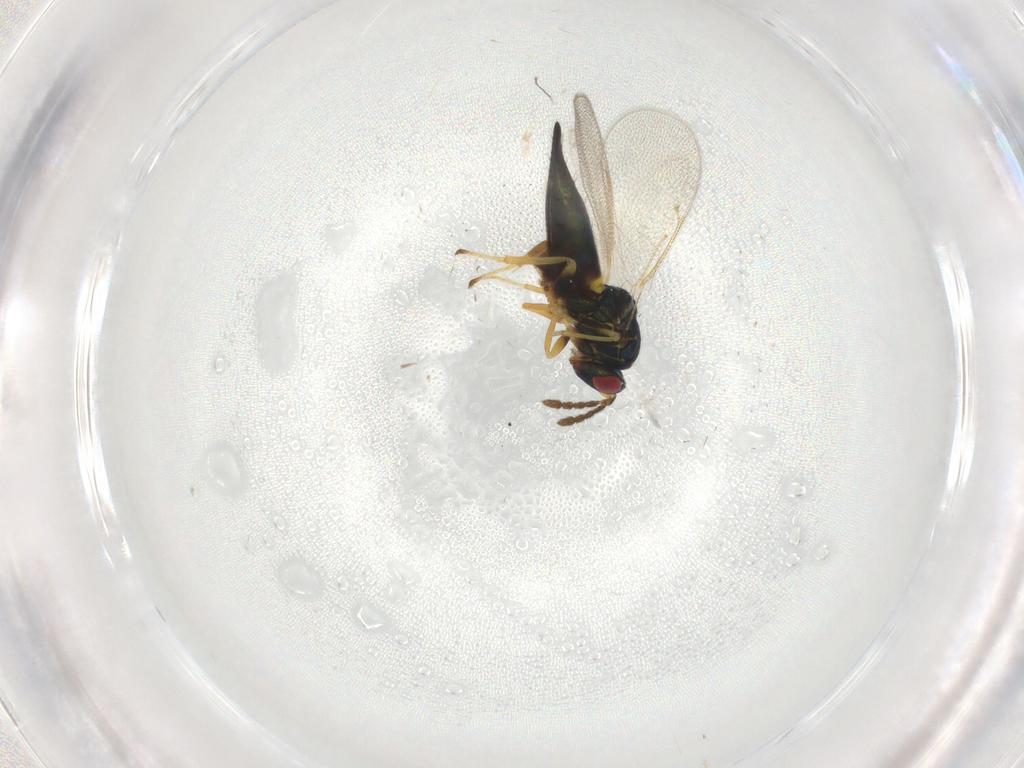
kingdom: Animalia
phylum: Arthropoda
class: Insecta
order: Hymenoptera
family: Eulophidae
